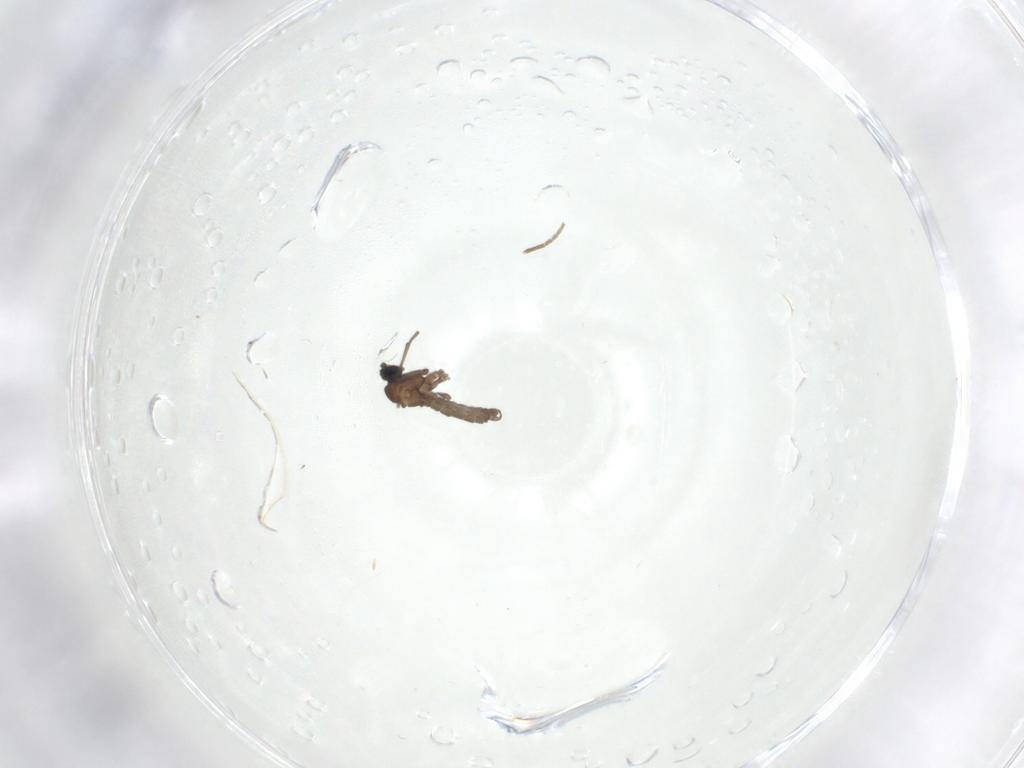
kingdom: Animalia
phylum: Arthropoda
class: Insecta
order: Diptera
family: Sciaridae
